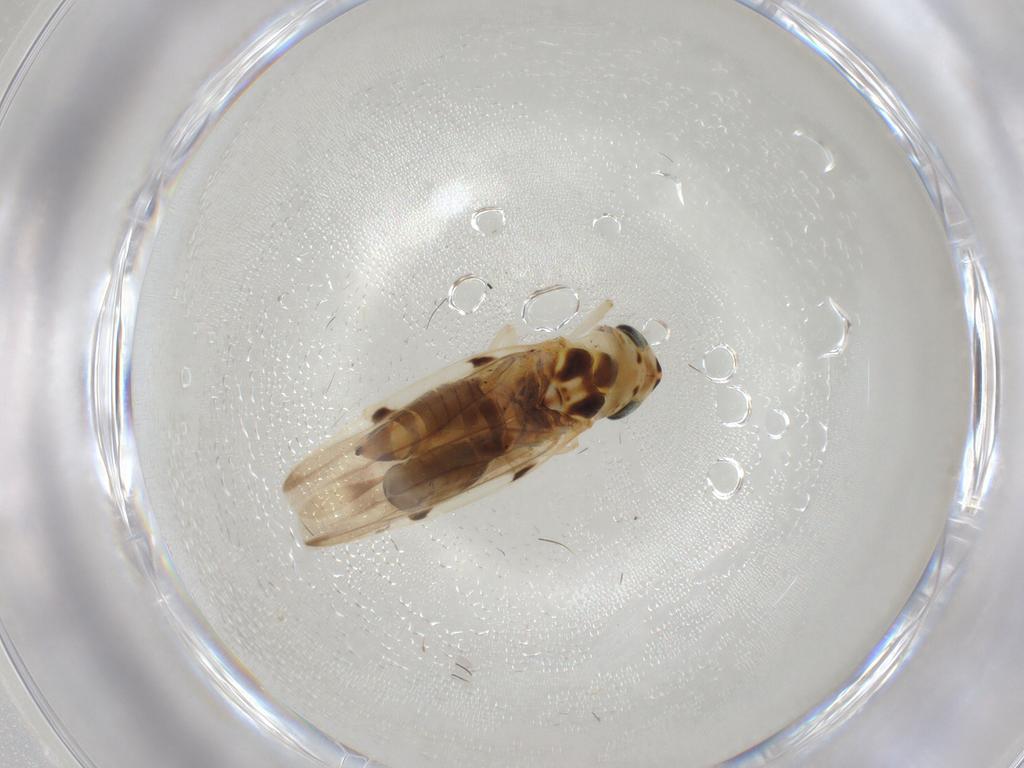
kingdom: Animalia
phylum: Arthropoda
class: Insecta
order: Hemiptera
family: Cicadellidae
